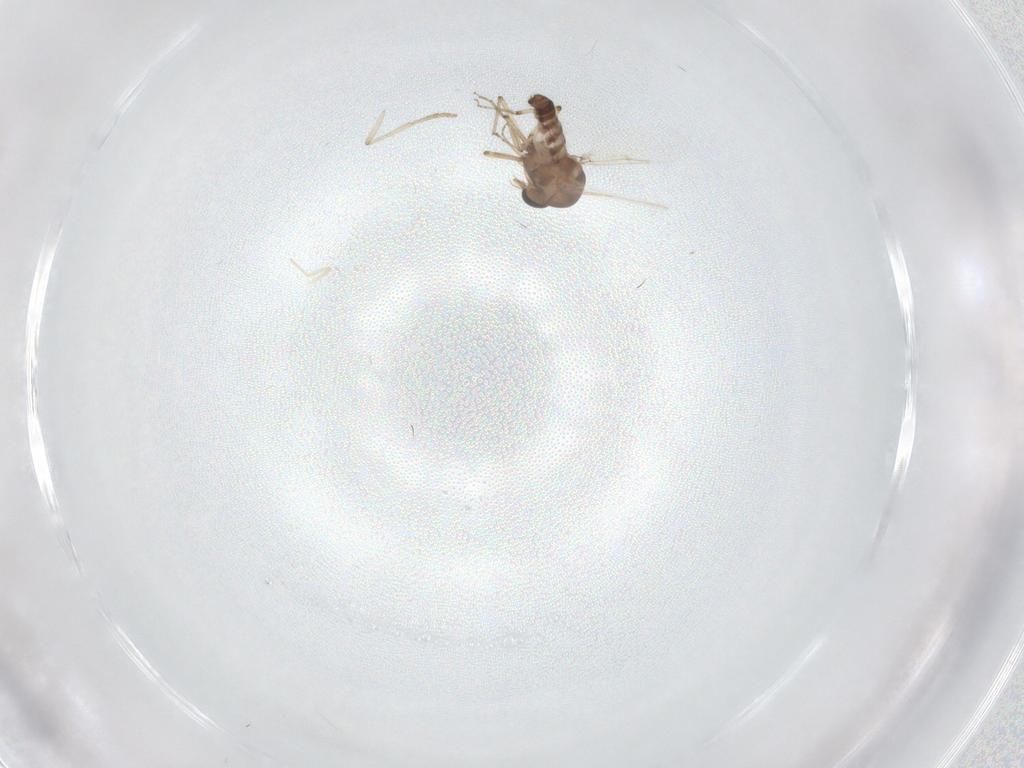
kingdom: Animalia
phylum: Arthropoda
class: Insecta
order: Diptera
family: Ceratopogonidae
